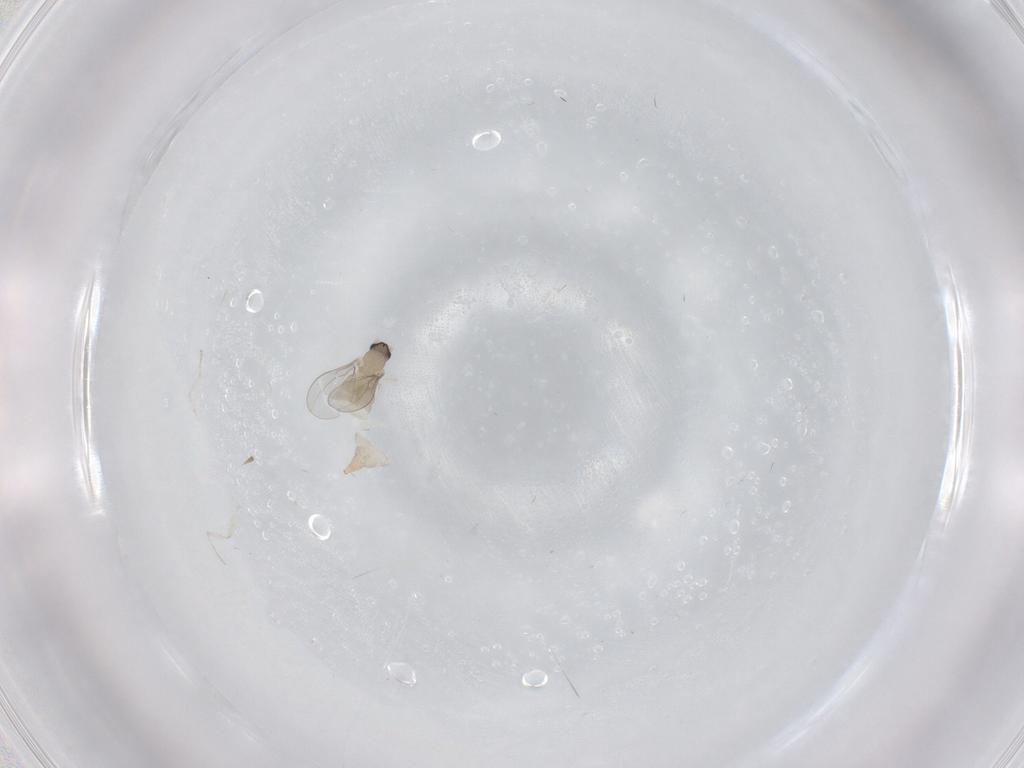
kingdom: Animalia
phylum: Arthropoda
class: Insecta
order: Diptera
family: Cecidomyiidae
